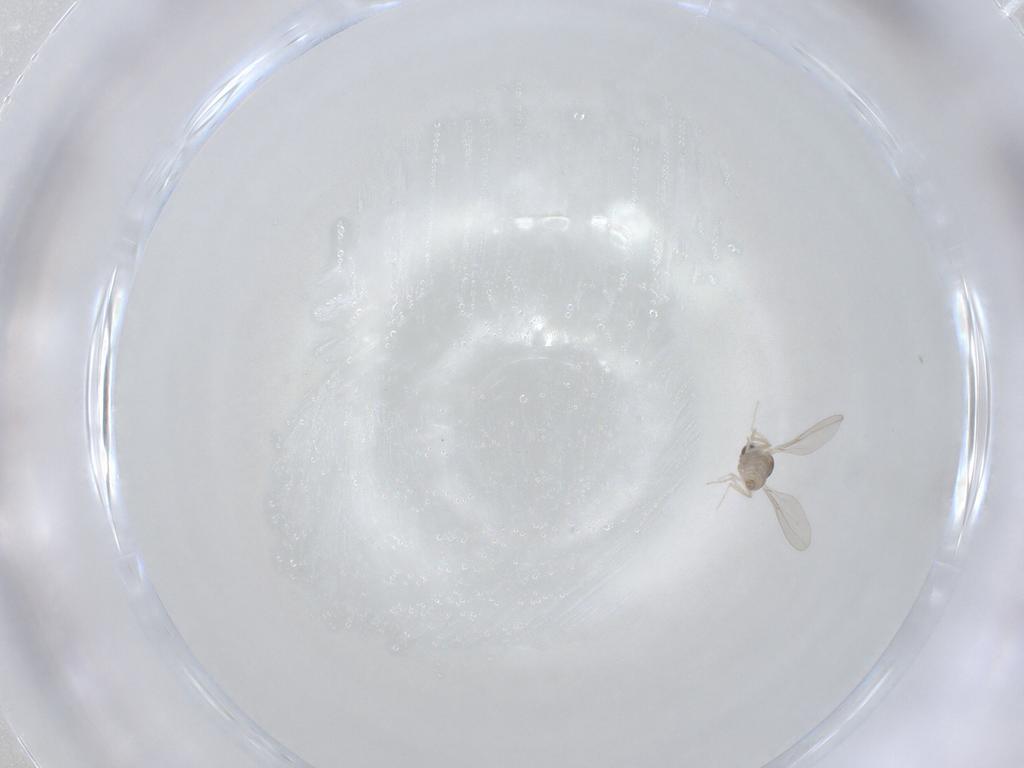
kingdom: Animalia
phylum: Arthropoda
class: Insecta
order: Diptera
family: Cecidomyiidae
